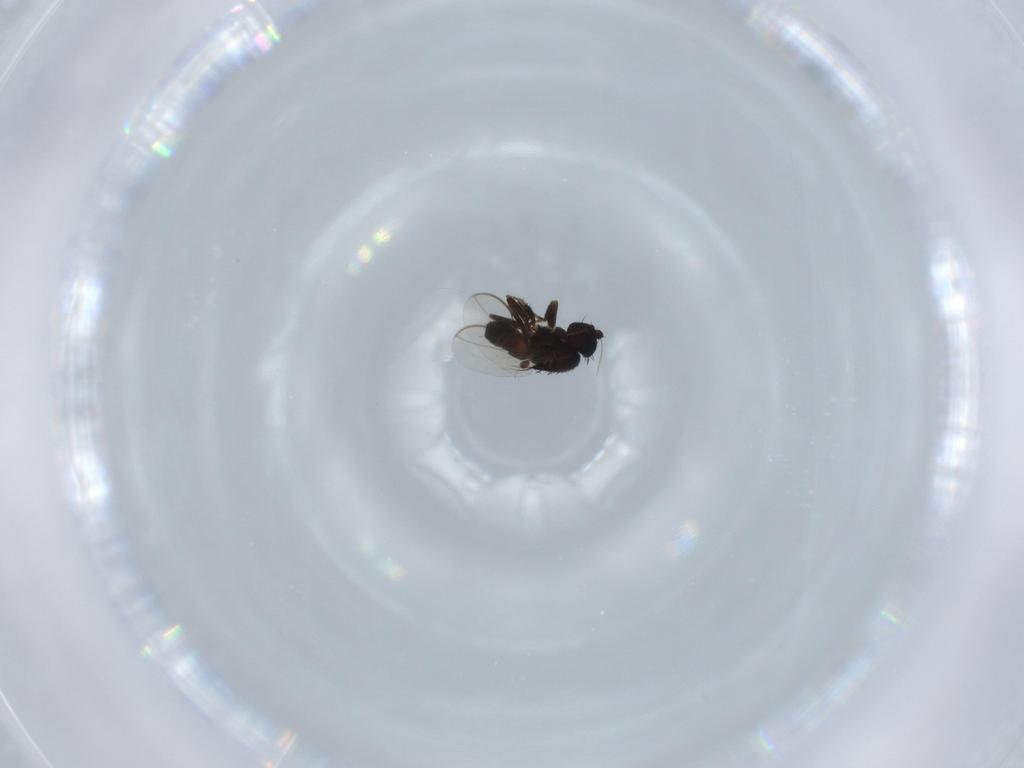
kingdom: Animalia
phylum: Arthropoda
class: Insecta
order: Diptera
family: Sphaeroceridae
